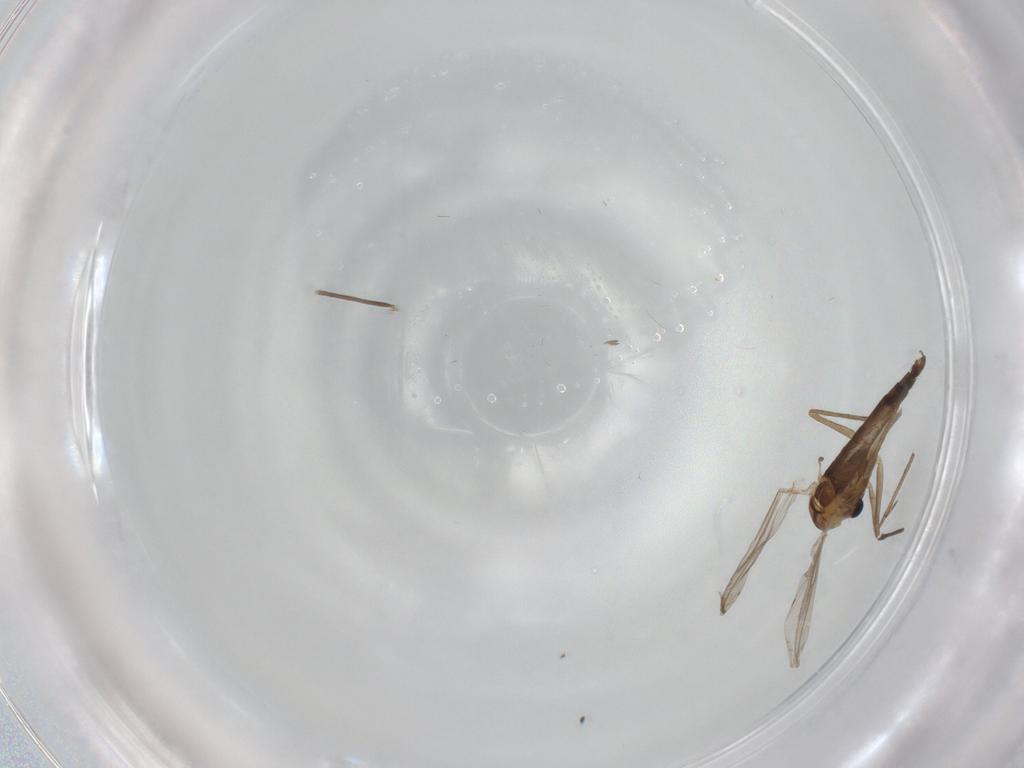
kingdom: Animalia
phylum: Arthropoda
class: Insecta
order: Diptera
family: Chironomidae
